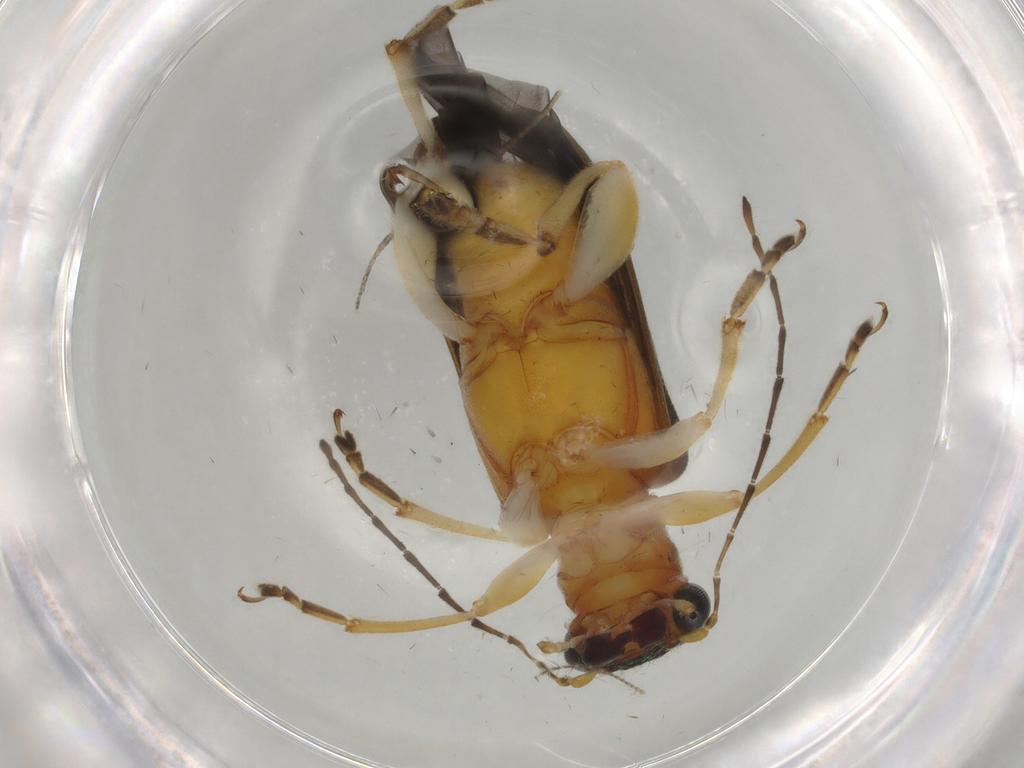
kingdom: Animalia
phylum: Arthropoda
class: Insecta
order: Coleoptera
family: Chrysomelidae
